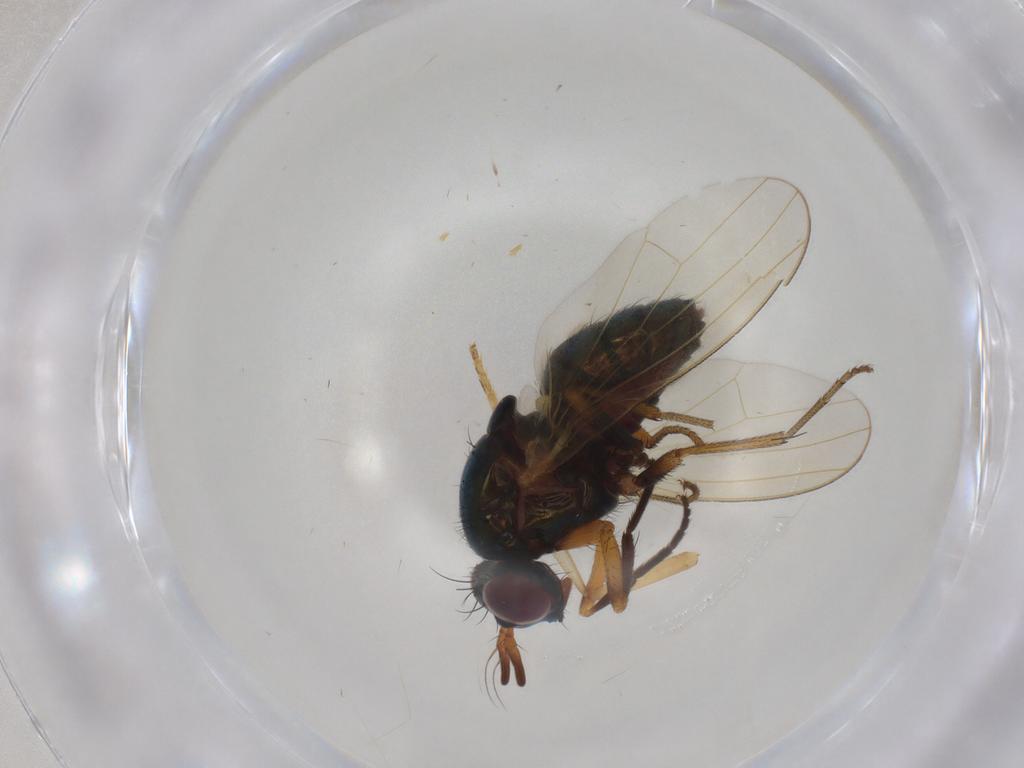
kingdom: Animalia
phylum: Arthropoda
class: Insecta
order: Diptera
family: Lauxaniidae
